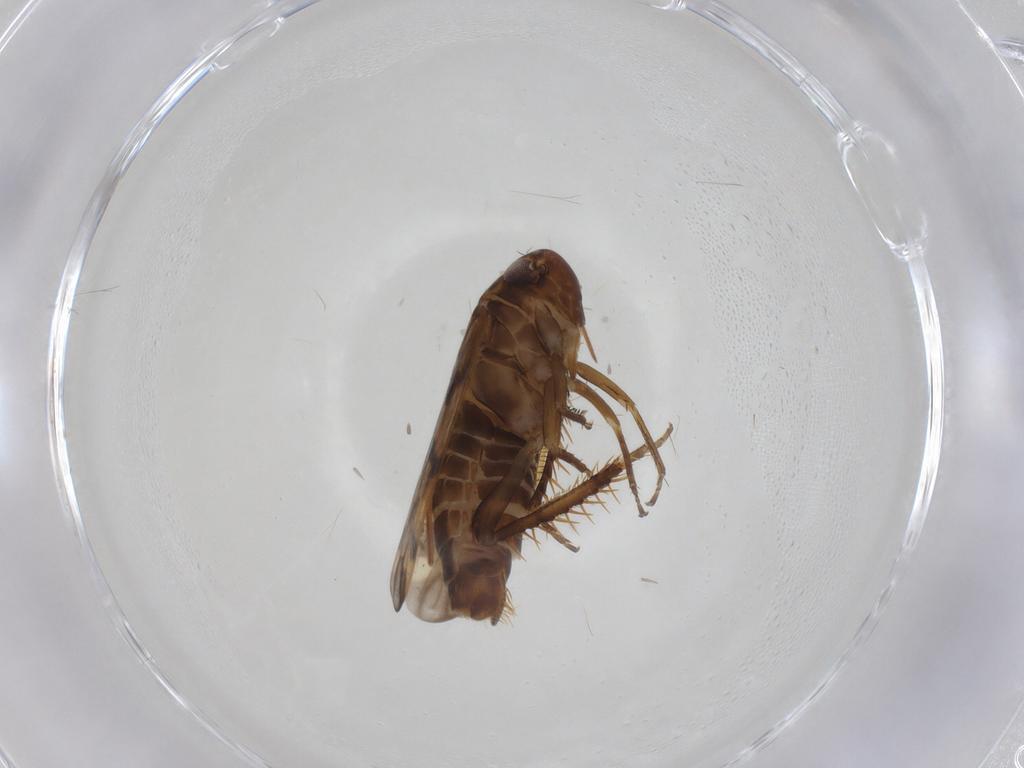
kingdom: Animalia
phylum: Arthropoda
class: Insecta
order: Hemiptera
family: Cicadellidae
